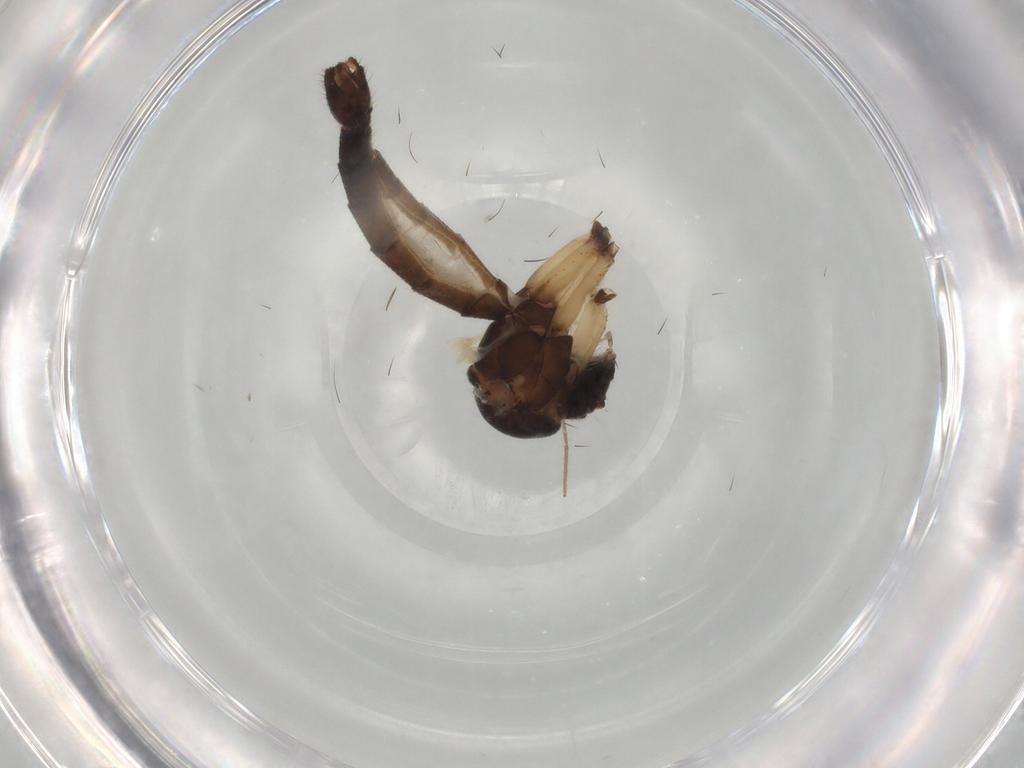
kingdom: Animalia
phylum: Arthropoda
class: Insecta
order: Diptera
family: Mycetophilidae
